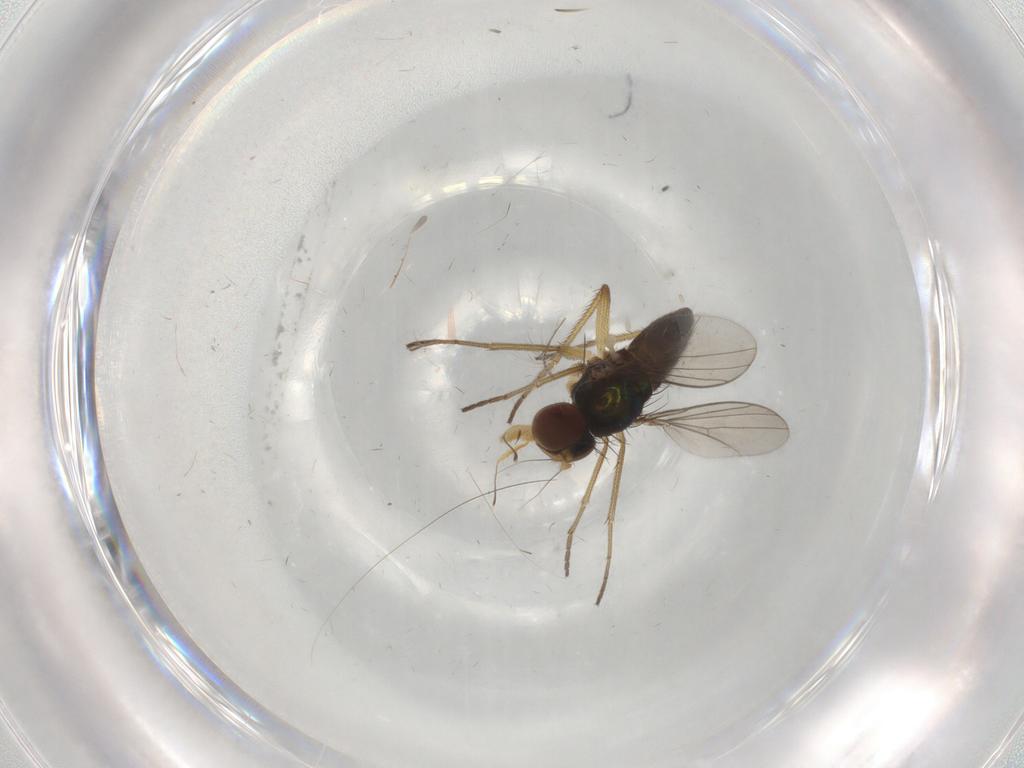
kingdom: Animalia
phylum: Arthropoda
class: Insecta
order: Diptera
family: Dolichopodidae
